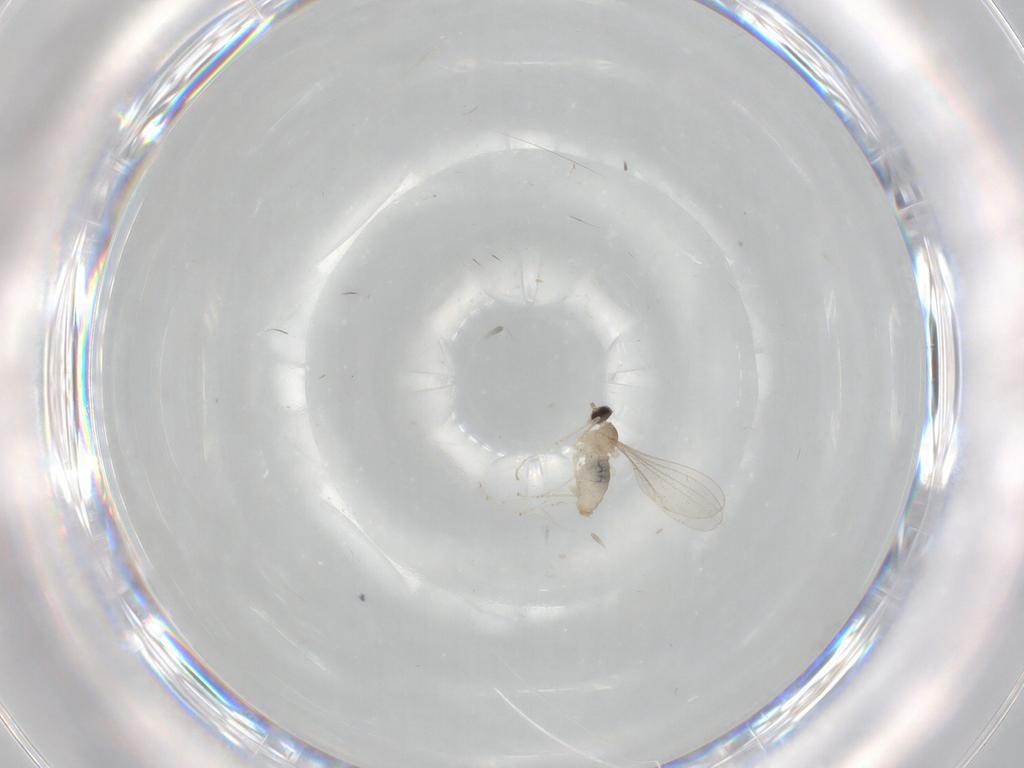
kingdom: Animalia
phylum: Arthropoda
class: Insecta
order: Diptera
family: Cecidomyiidae
